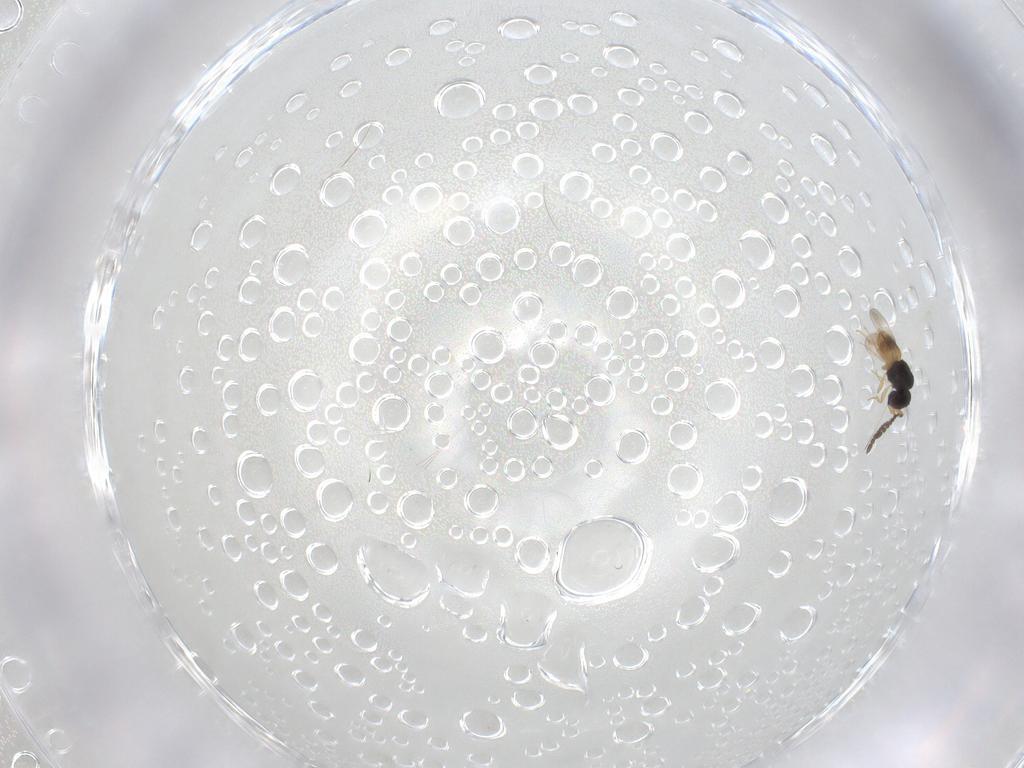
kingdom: Animalia
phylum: Arthropoda
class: Insecta
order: Hymenoptera
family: Ceraphronidae
